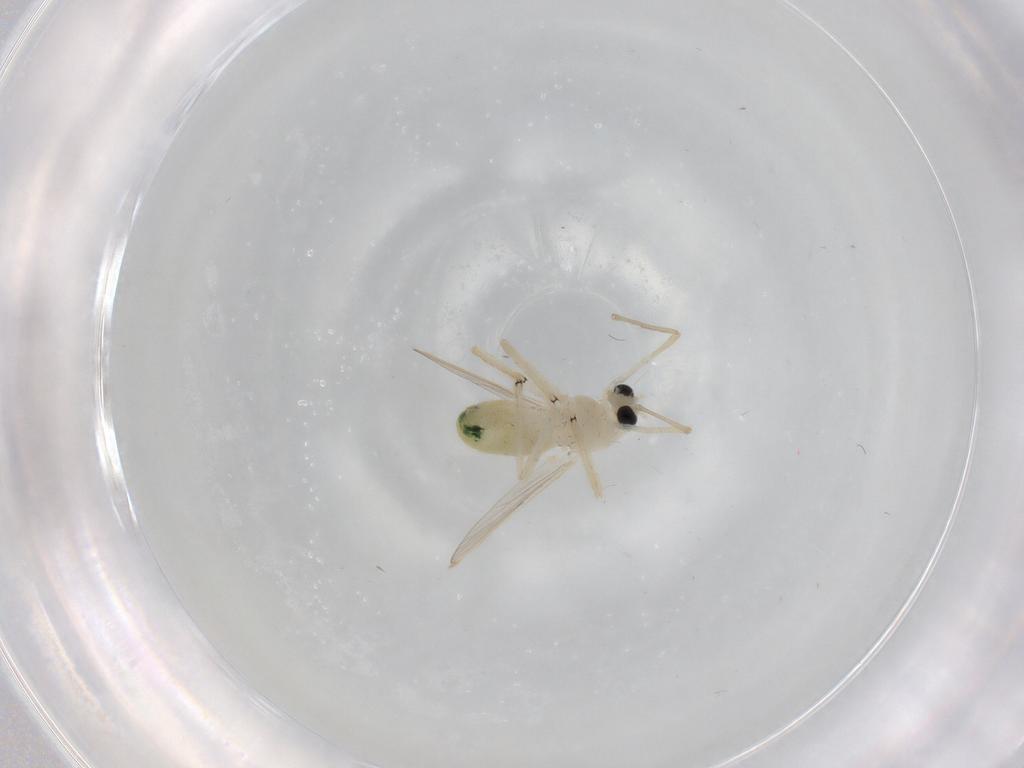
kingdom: Animalia
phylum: Arthropoda
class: Insecta
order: Diptera
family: Chironomidae
